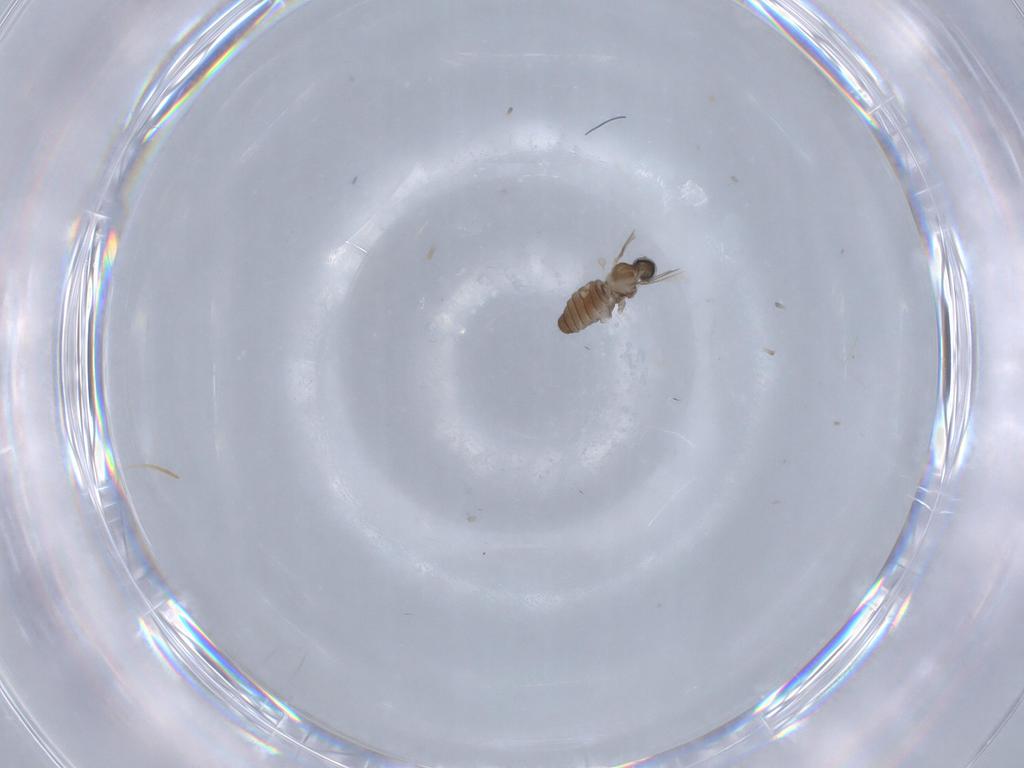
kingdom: Animalia
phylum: Arthropoda
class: Insecta
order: Diptera
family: Cecidomyiidae
